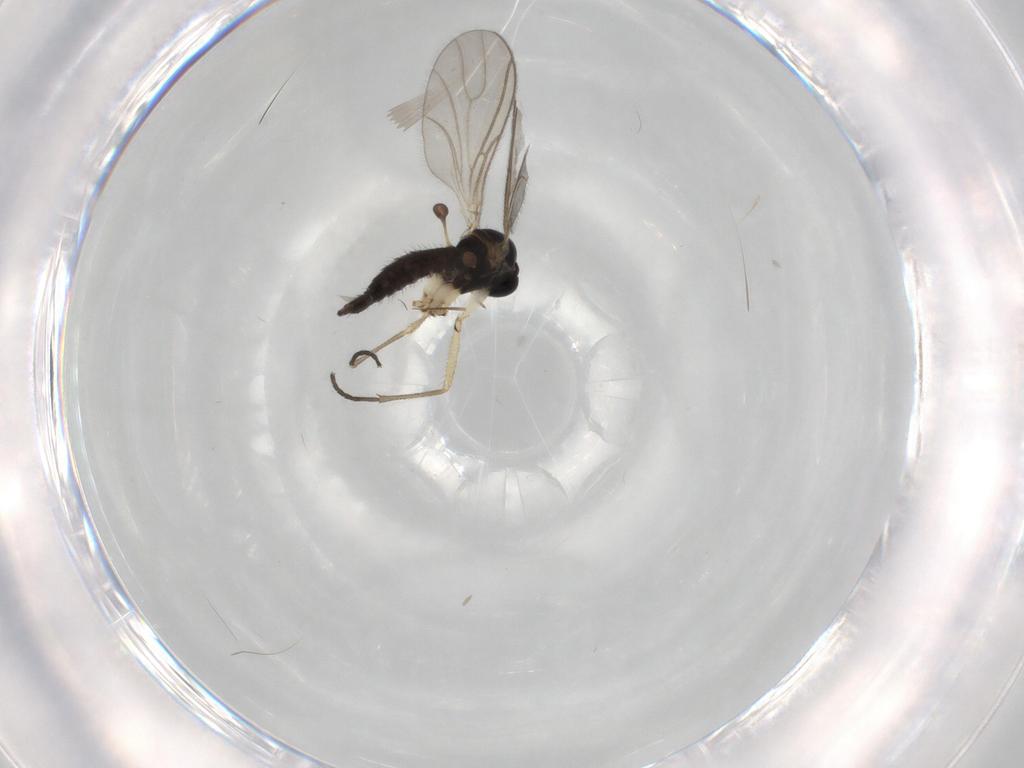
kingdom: Animalia
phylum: Arthropoda
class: Insecta
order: Diptera
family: Sciaridae
